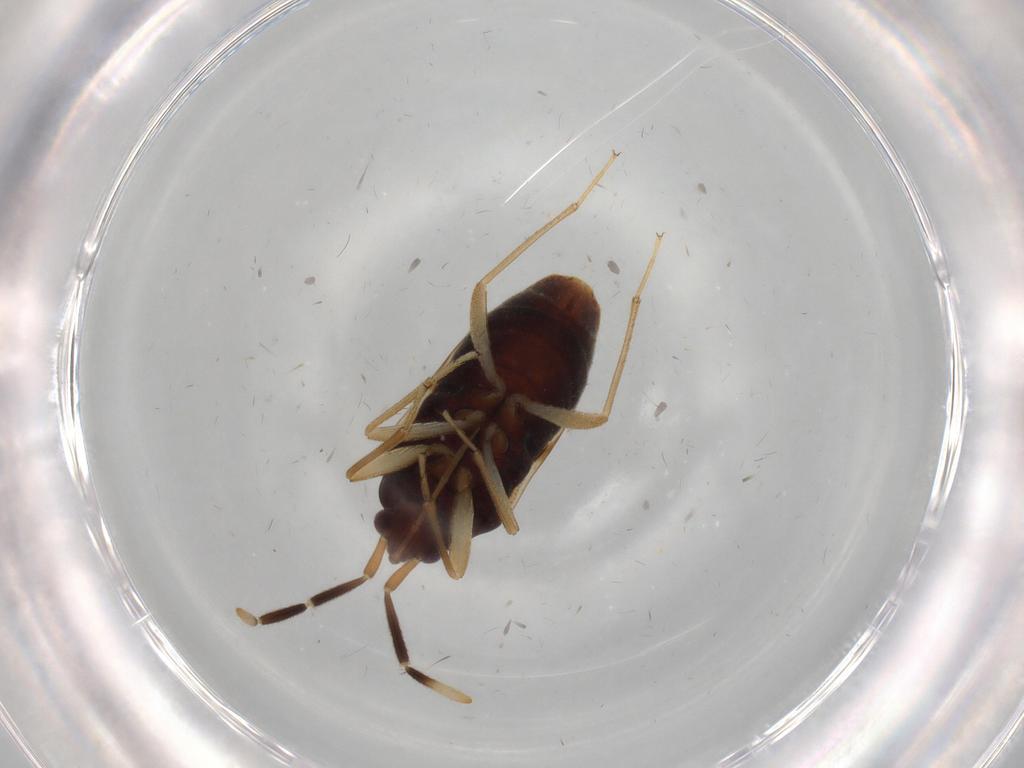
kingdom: Animalia
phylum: Arthropoda
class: Insecta
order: Hemiptera
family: Rhyparochromidae
